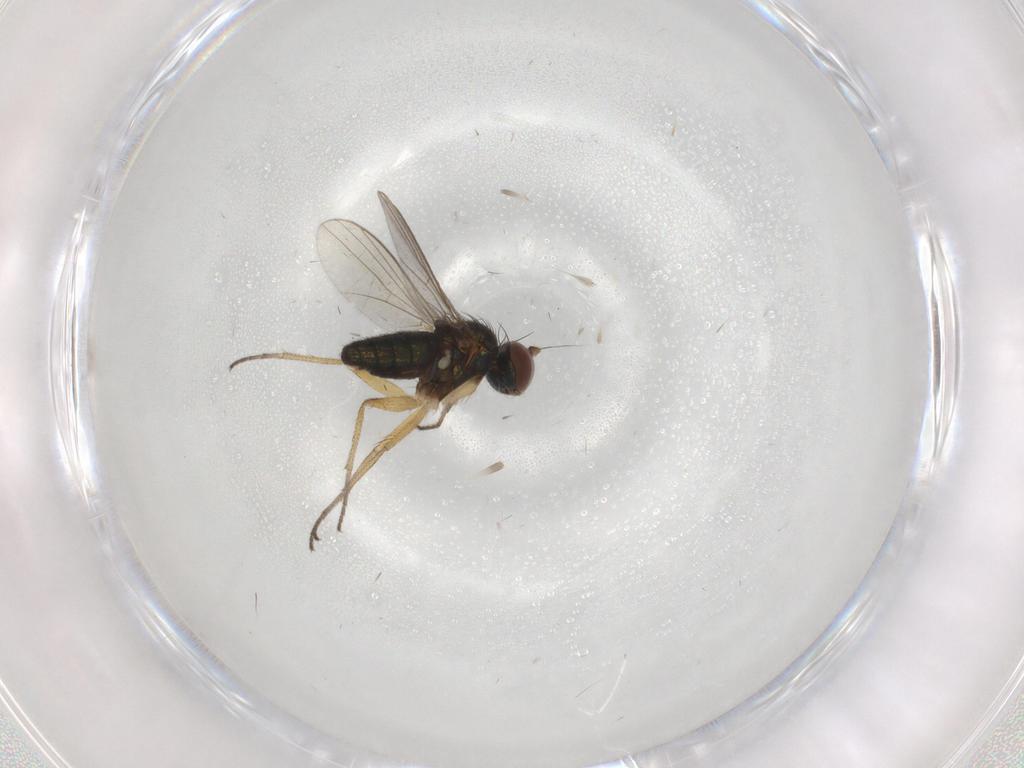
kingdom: Animalia
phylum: Arthropoda
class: Insecta
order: Diptera
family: Dolichopodidae
